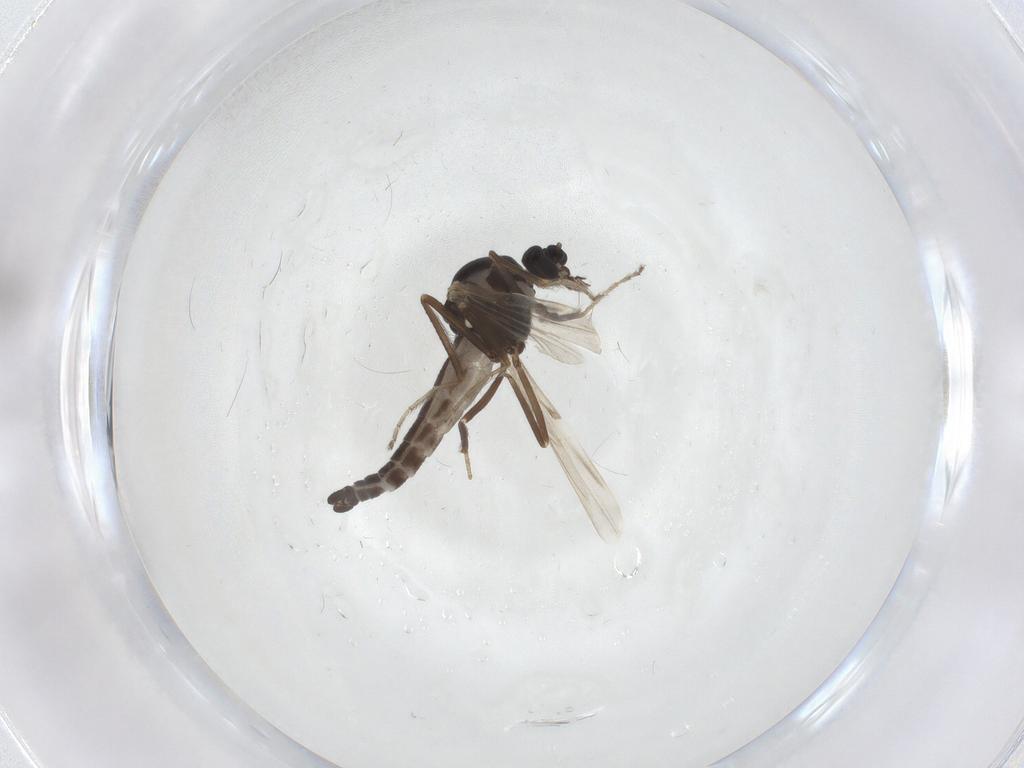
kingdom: Animalia
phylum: Arthropoda
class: Insecta
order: Diptera
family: Ceratopogonidae
